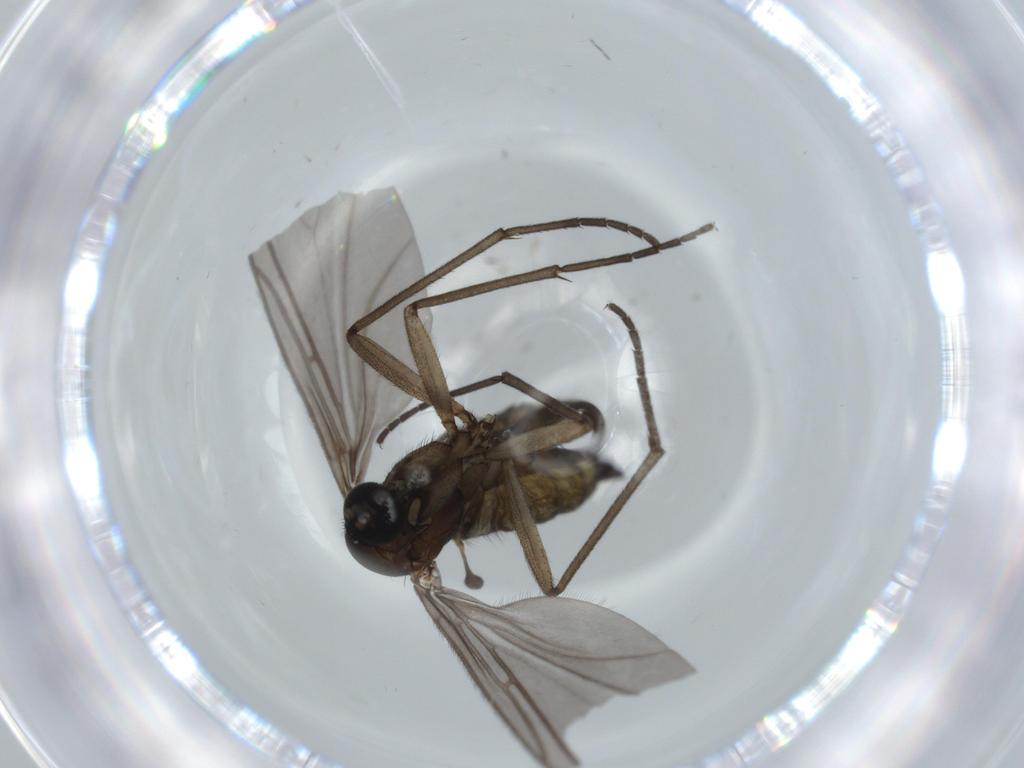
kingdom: Animalia
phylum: Arthropoda
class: Insecta
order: Diptera
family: Sciaridae
